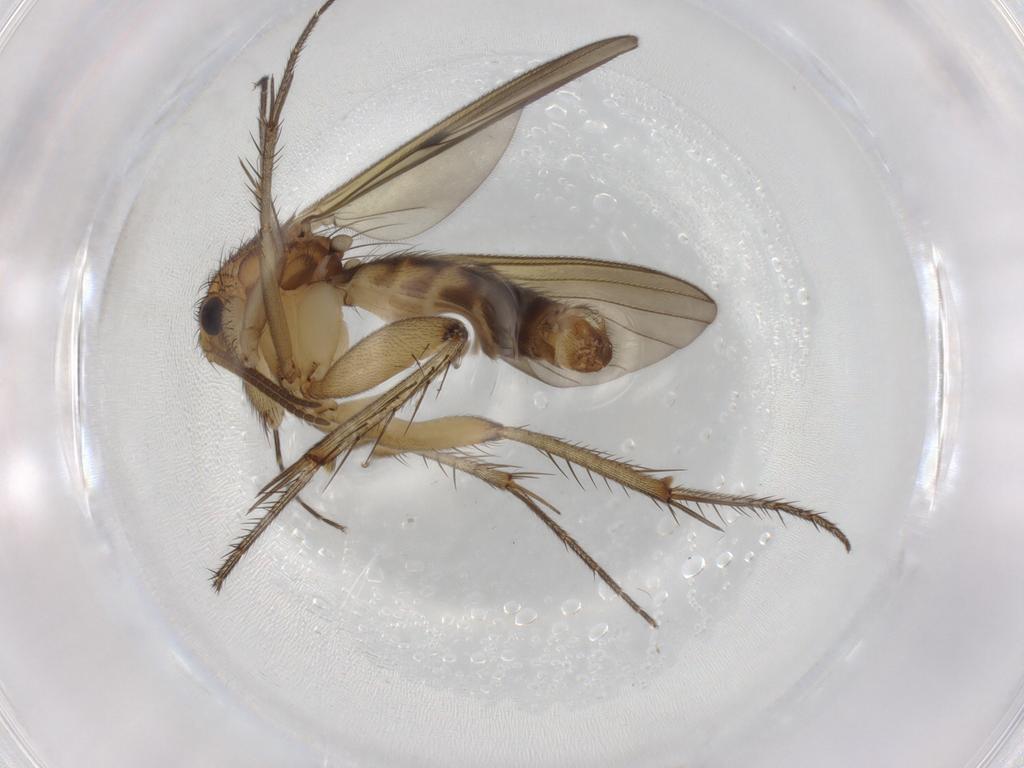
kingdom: Animalia
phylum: Arthropoda
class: Insecta
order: Diptera
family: Mycetophilidae
